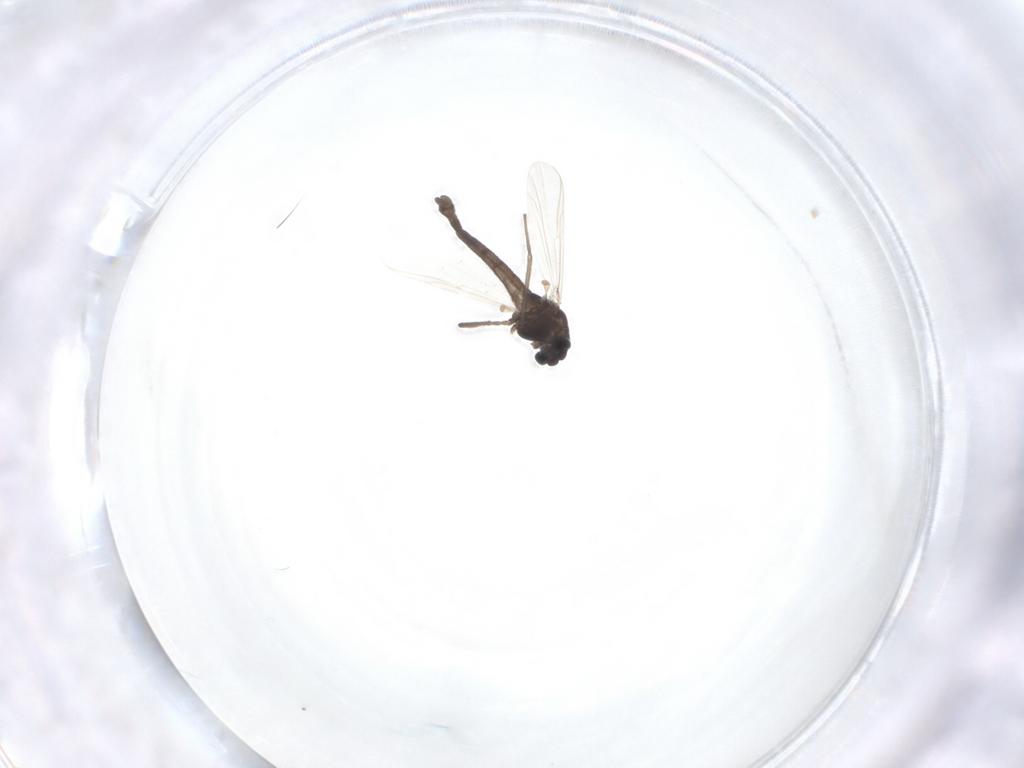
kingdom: Animalia
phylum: Arthropoda
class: Insecta
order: Diptera
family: Chironomidae
